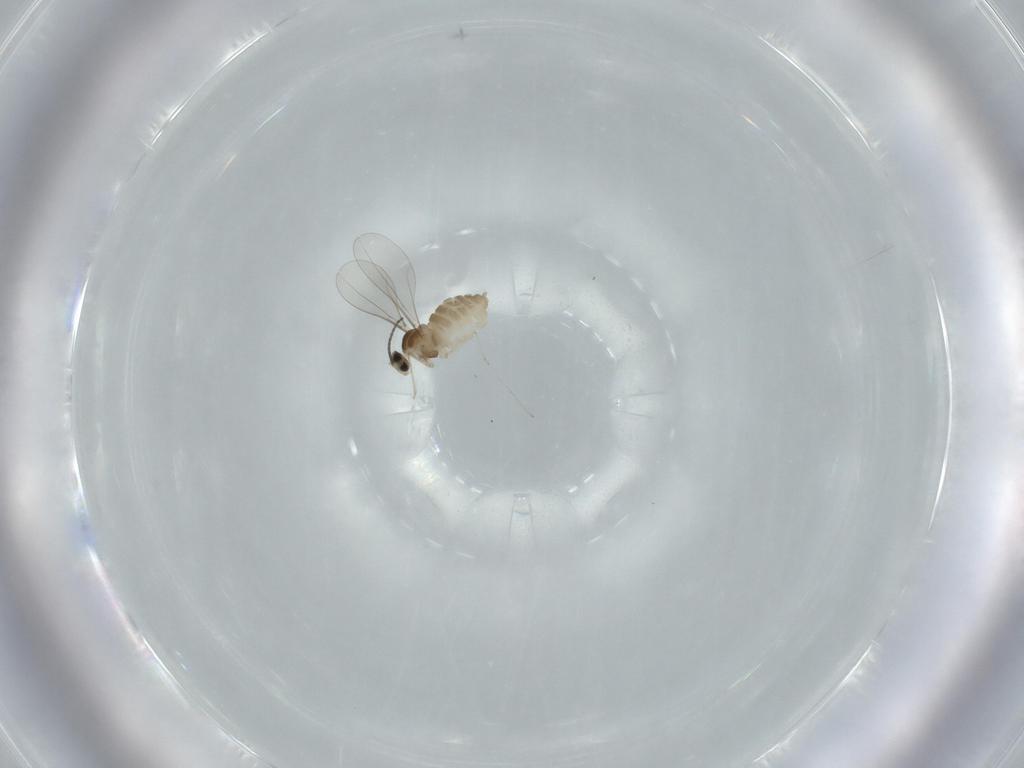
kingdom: Animalia
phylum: Arthropoda
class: Insecta
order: Diptera
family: Cecidomyiidae
